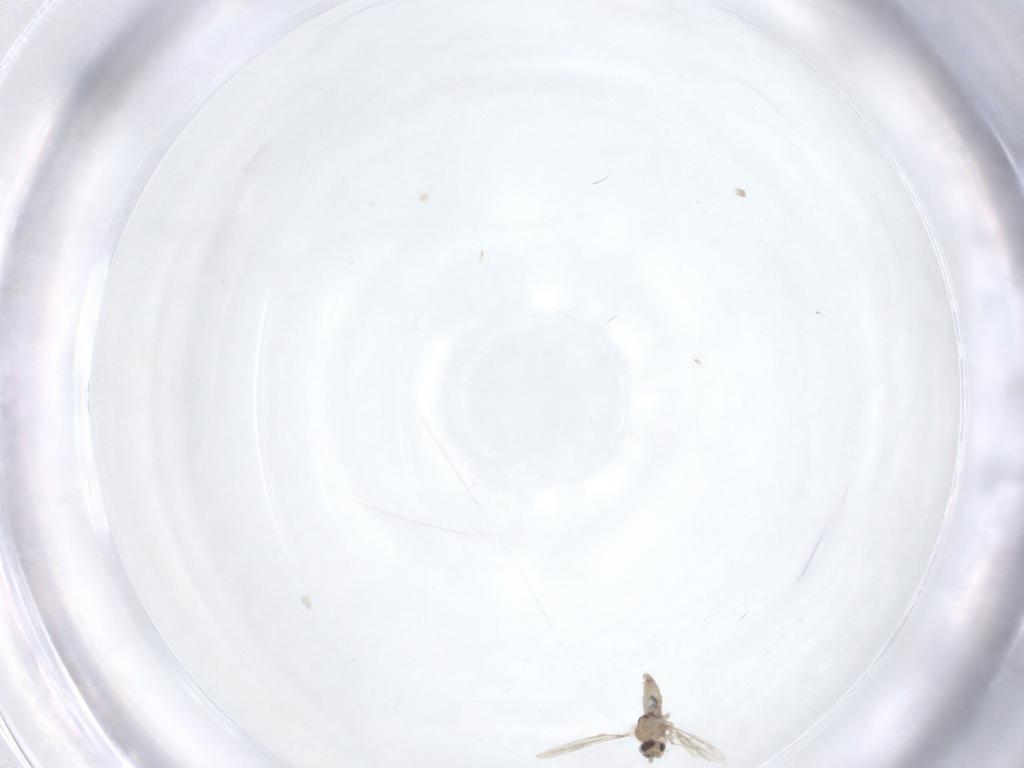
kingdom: Animalia
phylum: Arthropoda
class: Insecta
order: Diptera
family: Cecidomyiidae
